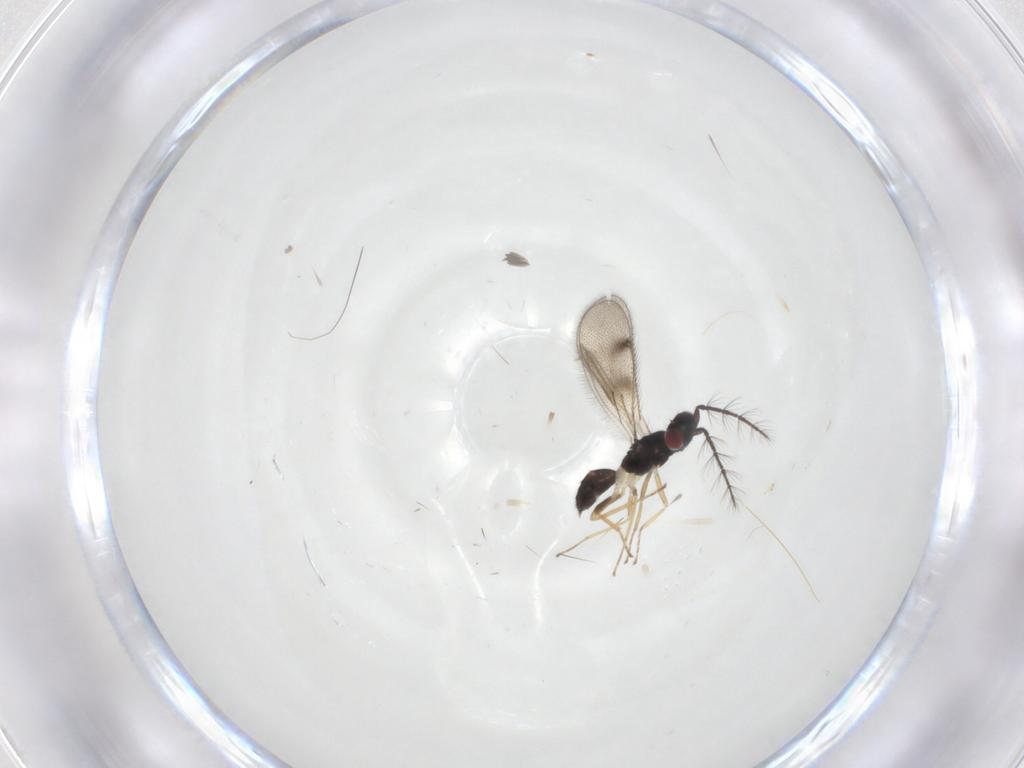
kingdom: Animalia
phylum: Arthropoda
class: Insecta
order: Hymenoptera
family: Eulophidae
